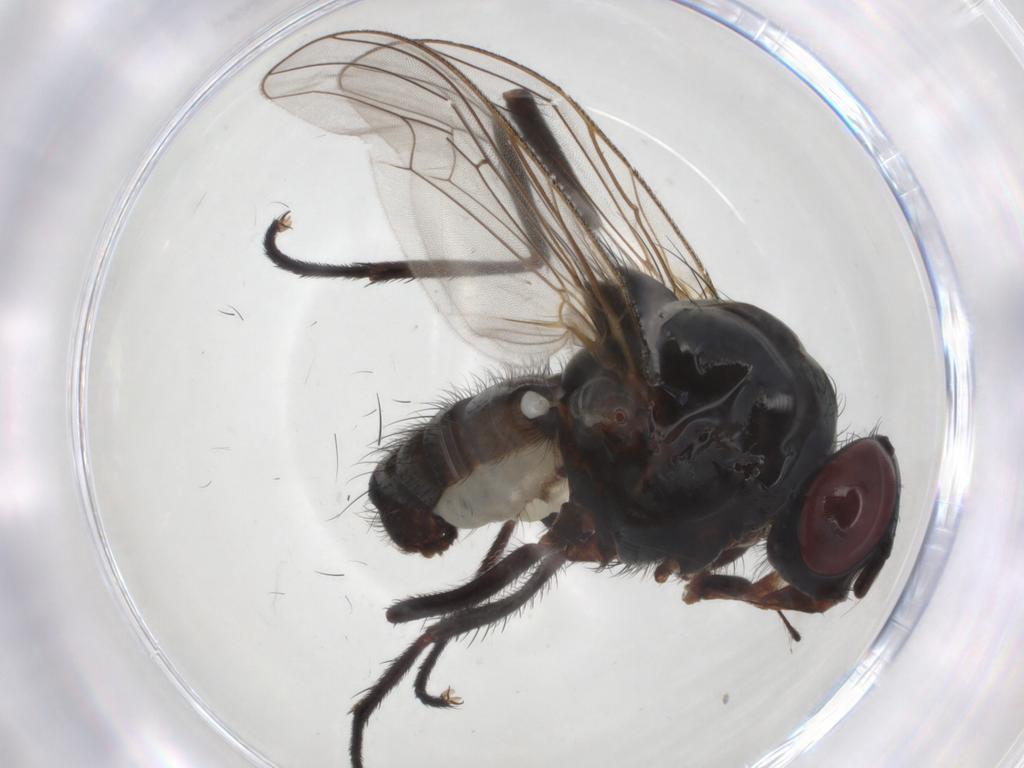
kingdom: Animalia
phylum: Arthropoda
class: Insecta
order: Diptera
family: Anthomyiidae
